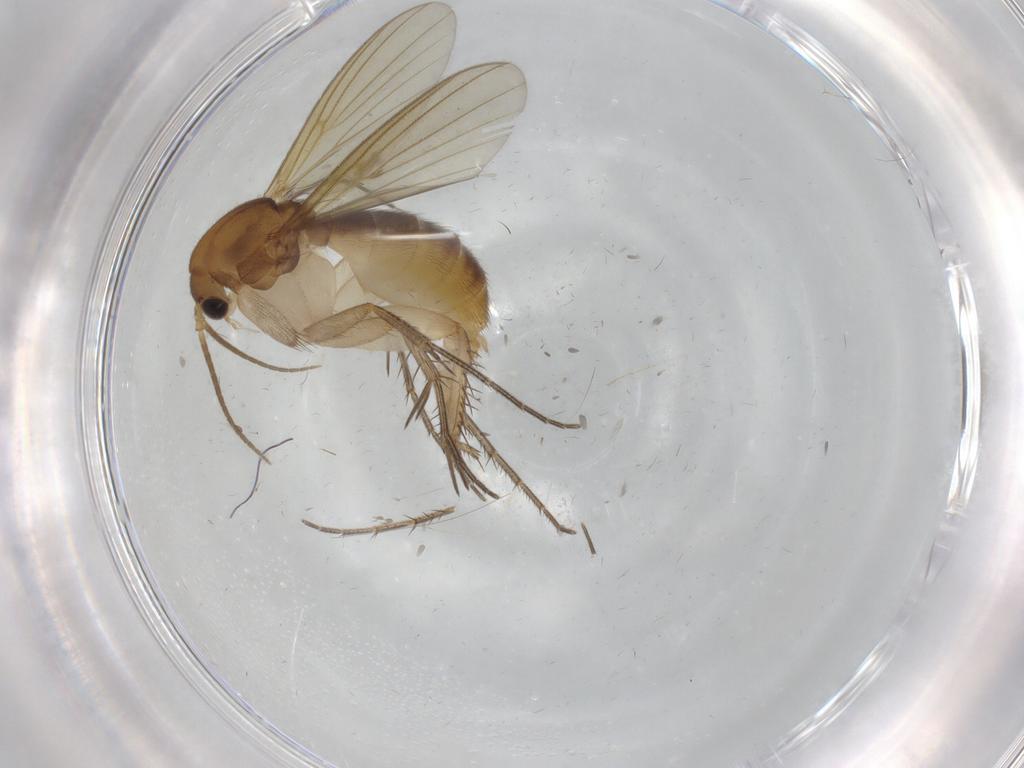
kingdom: Animalia
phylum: Arthropoda
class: Insecta
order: Diptera
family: Mycetophilidae
